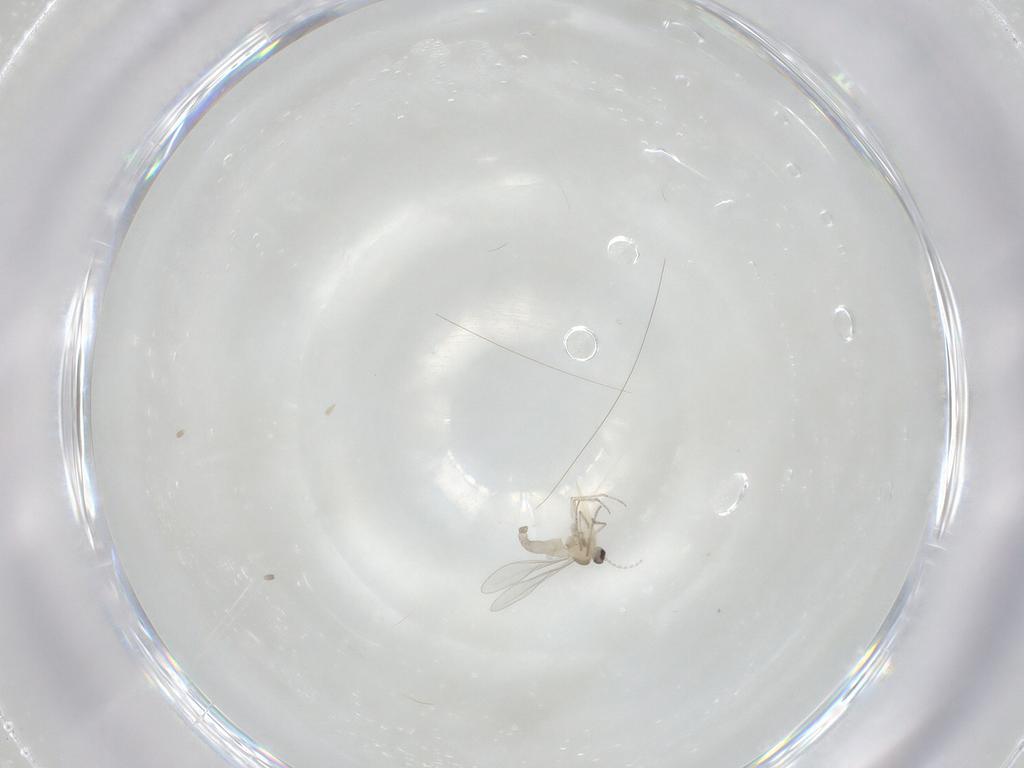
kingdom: Animalia
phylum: Arthropoda
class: Insecta
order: Diptera
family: Cecidomyiidae
